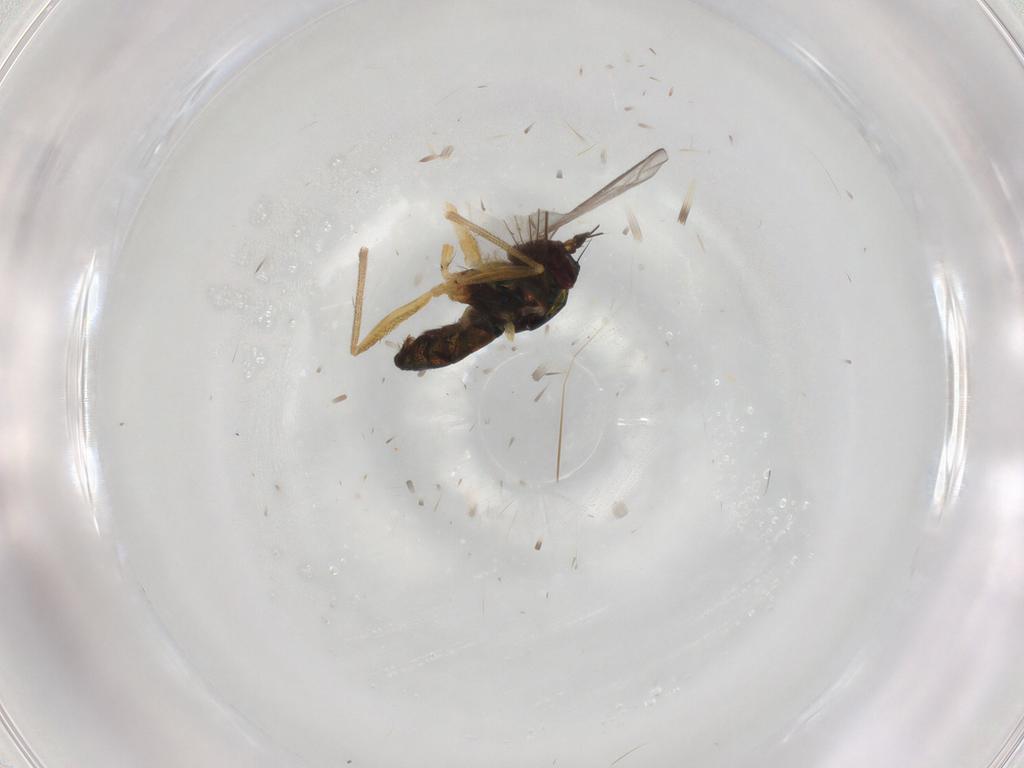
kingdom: Animalia
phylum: Arthropoda
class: Insecta
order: Diptera
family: Dolichopodidae
